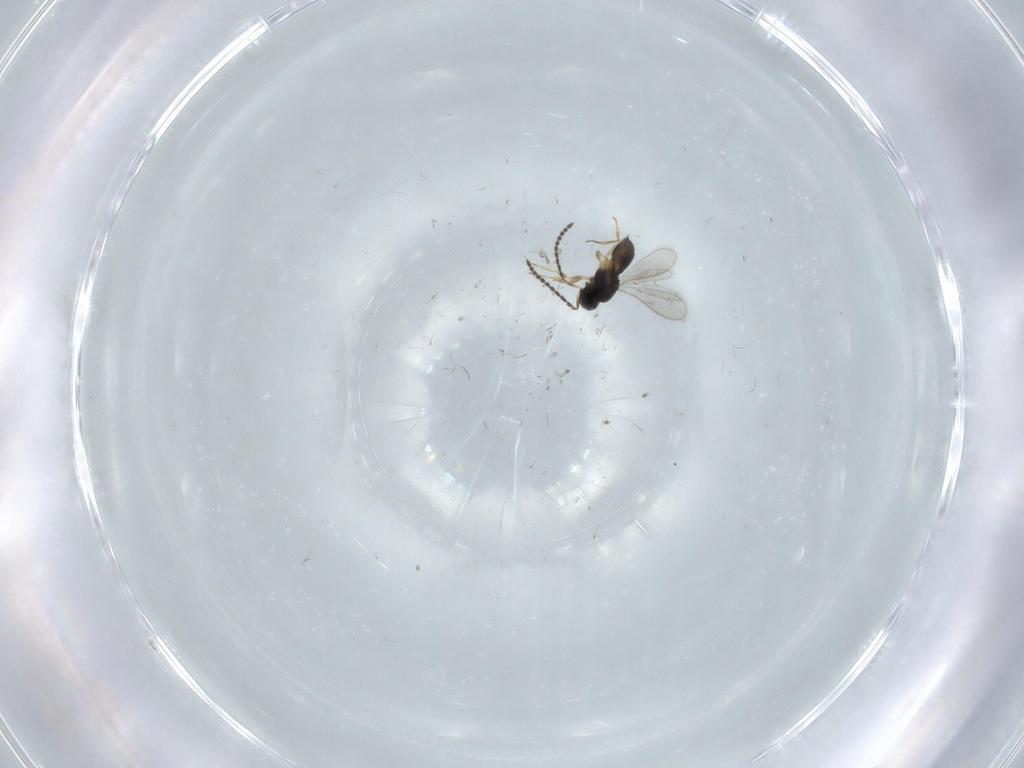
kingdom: Animalia
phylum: Arthropoda
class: Insecta
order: Hymenoptera
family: Scelionidae
